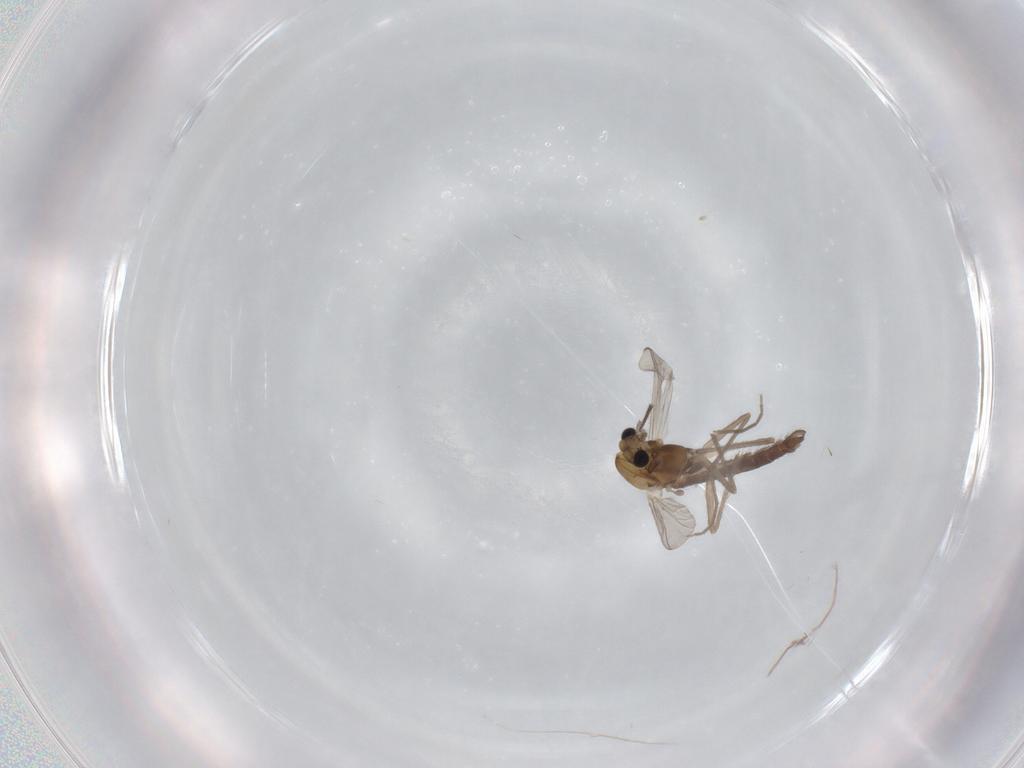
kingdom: Animalia
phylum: Arthropoda
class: Insecta
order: Diptera
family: Chironomidae
